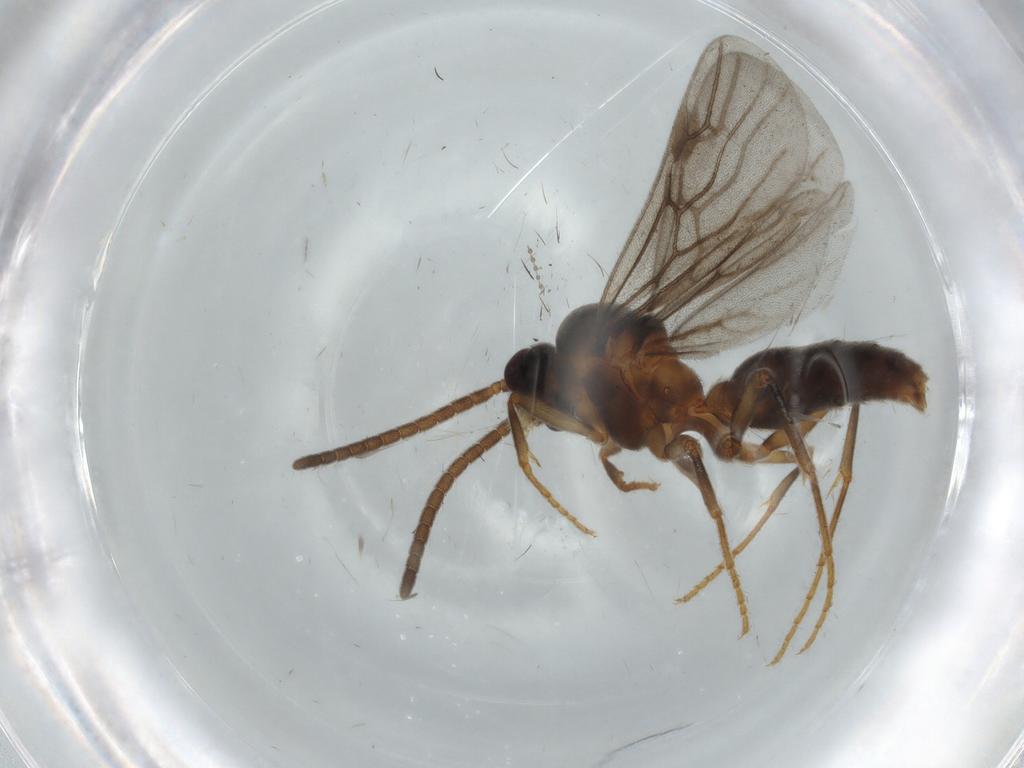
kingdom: Animalia
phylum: Arthropoda
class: Insecta
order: Hymenoptera
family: Formicidae
